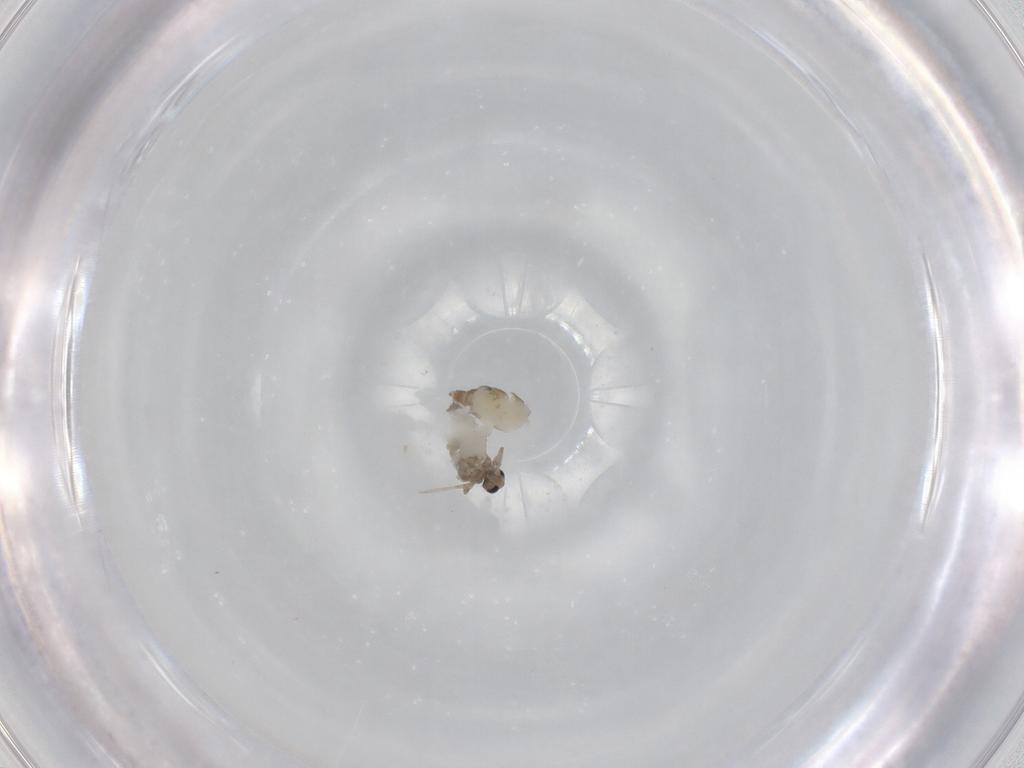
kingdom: Animalia
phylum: Arthropoda
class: Insecta
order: Diptera
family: Cecidomyiidae
